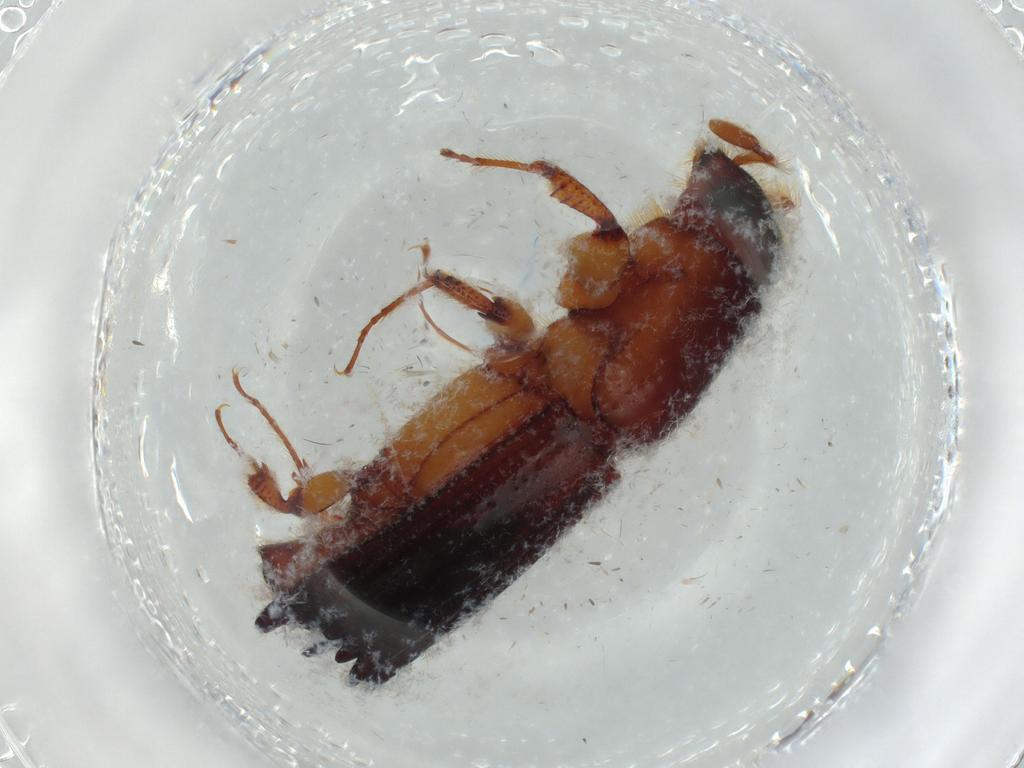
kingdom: Animalia
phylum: Arthropoda
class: Insecta
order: Coleoptera
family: Curculionidae
